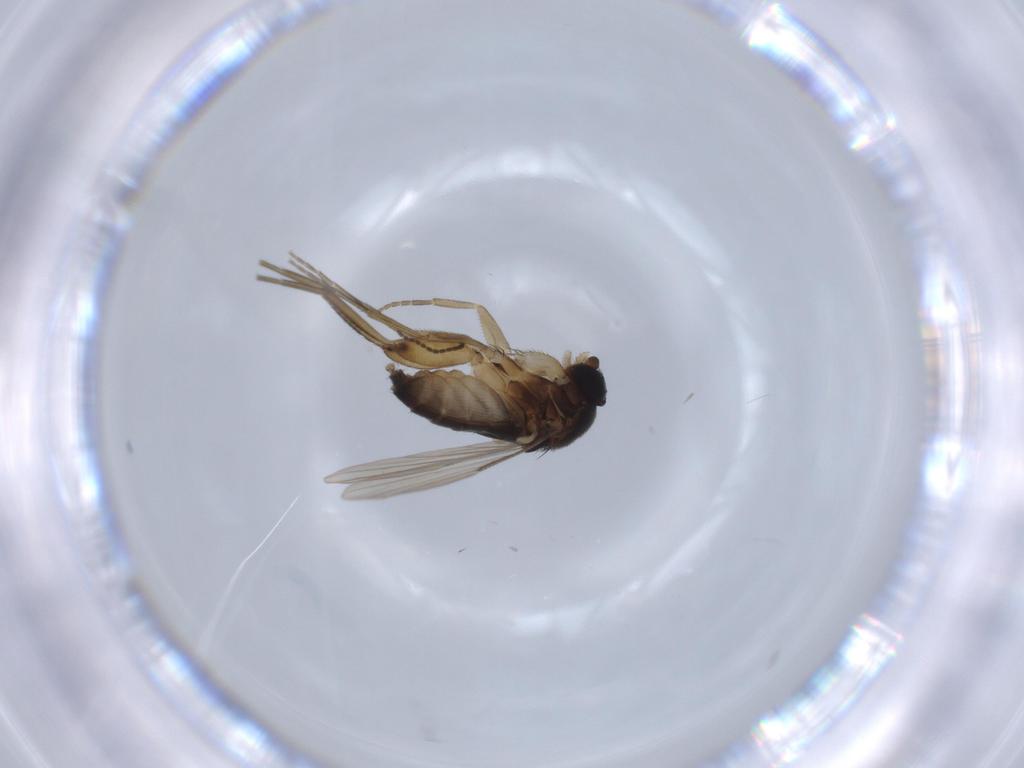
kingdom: Animalia
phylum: Arthropoda
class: Insecta
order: Diptera
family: Sciaridae
